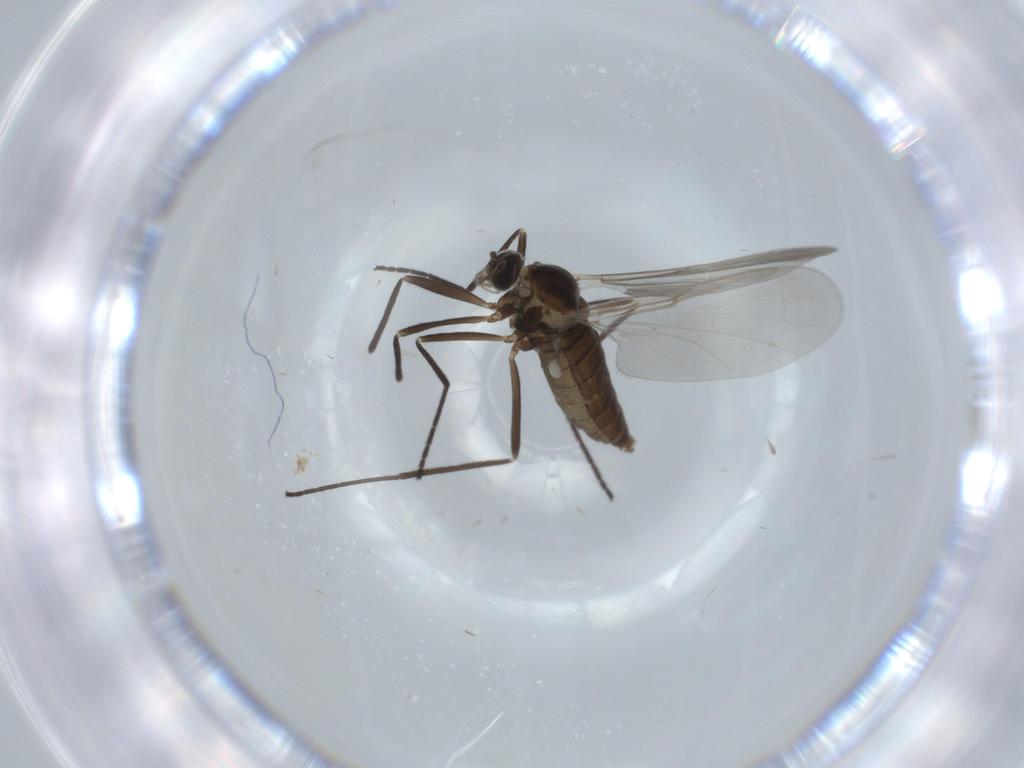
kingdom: Animalia
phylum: Arthropoda
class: Insecta
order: Diptera
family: Cecidomyiidae
